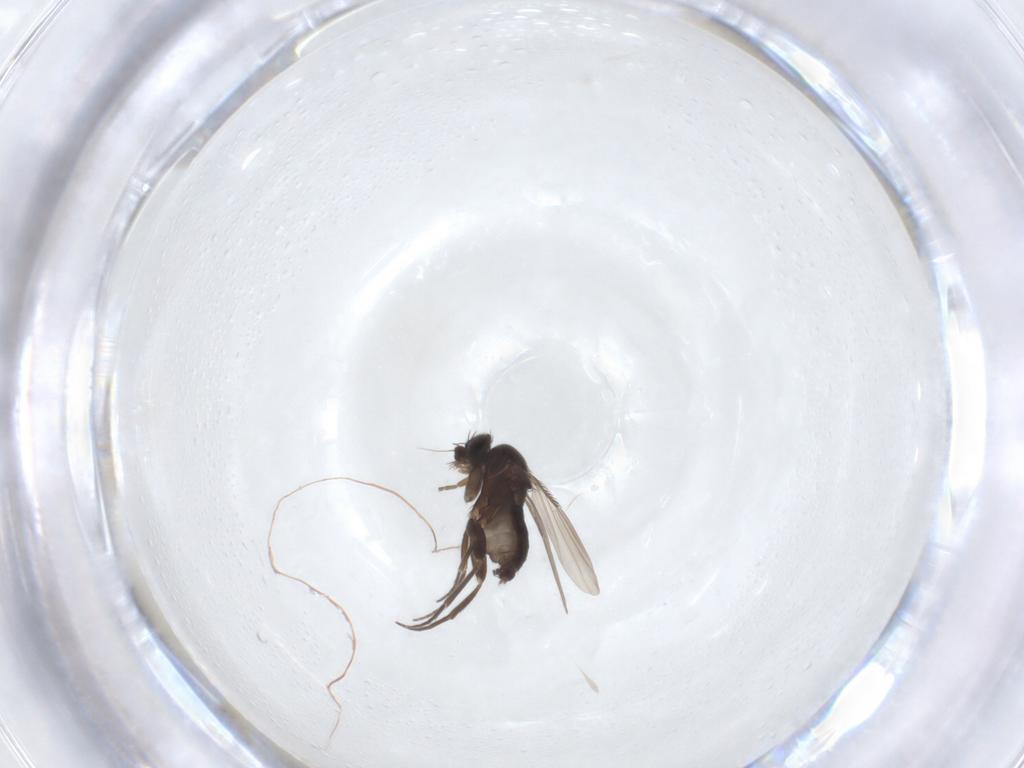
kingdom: Animalia
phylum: Arthropoda
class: Insecta
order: Diptera
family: Phoridae
